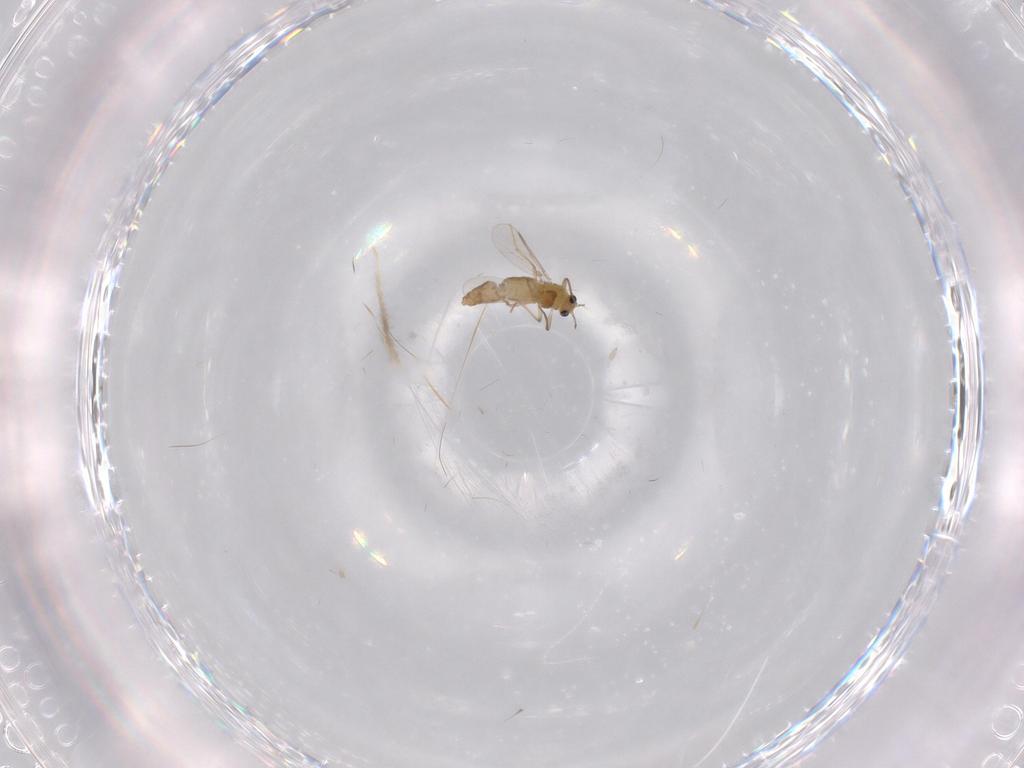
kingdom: Animalia
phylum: Arthropoda
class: Insecta
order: Diptera
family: Chironomidae
